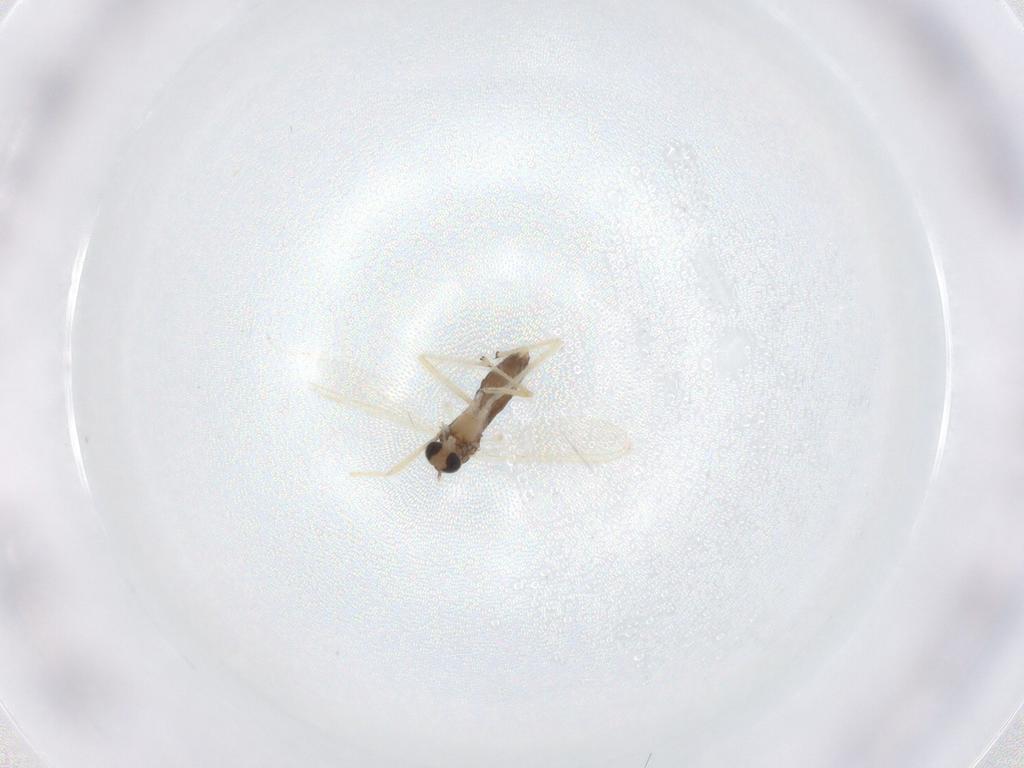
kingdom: Animalia
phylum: Arthropoda
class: Insecta
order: Diptera
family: Chironomidae
